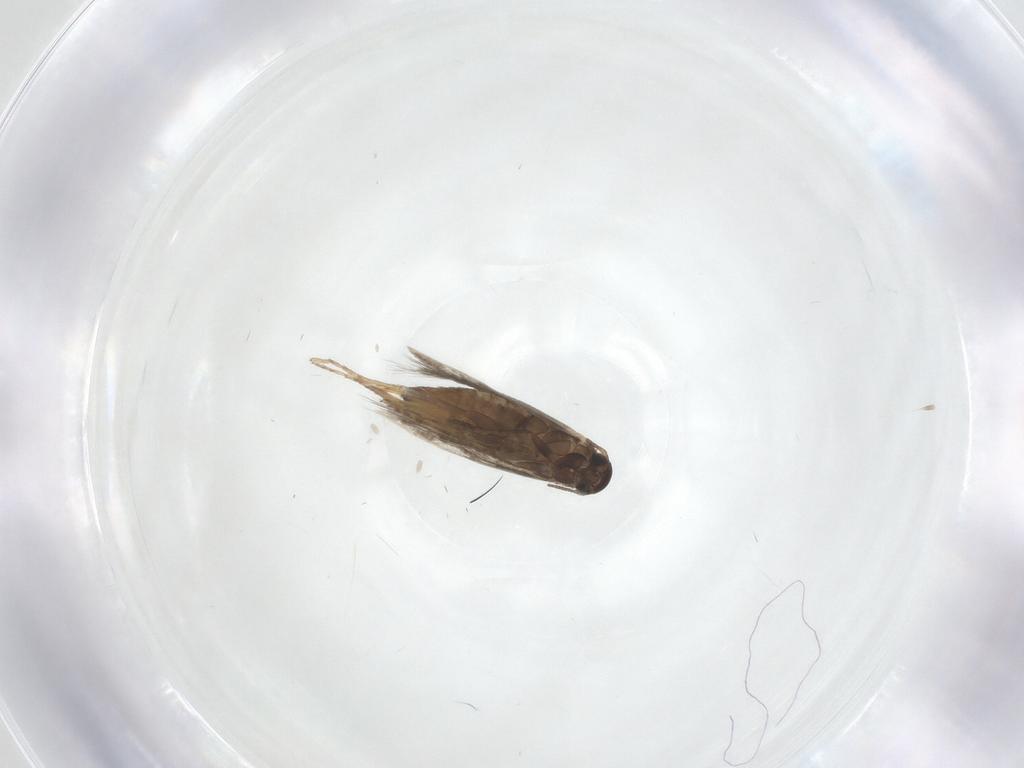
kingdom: Animalia
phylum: Arthropoda
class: Insecta
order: Lepidoptera
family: Heliozelidae
